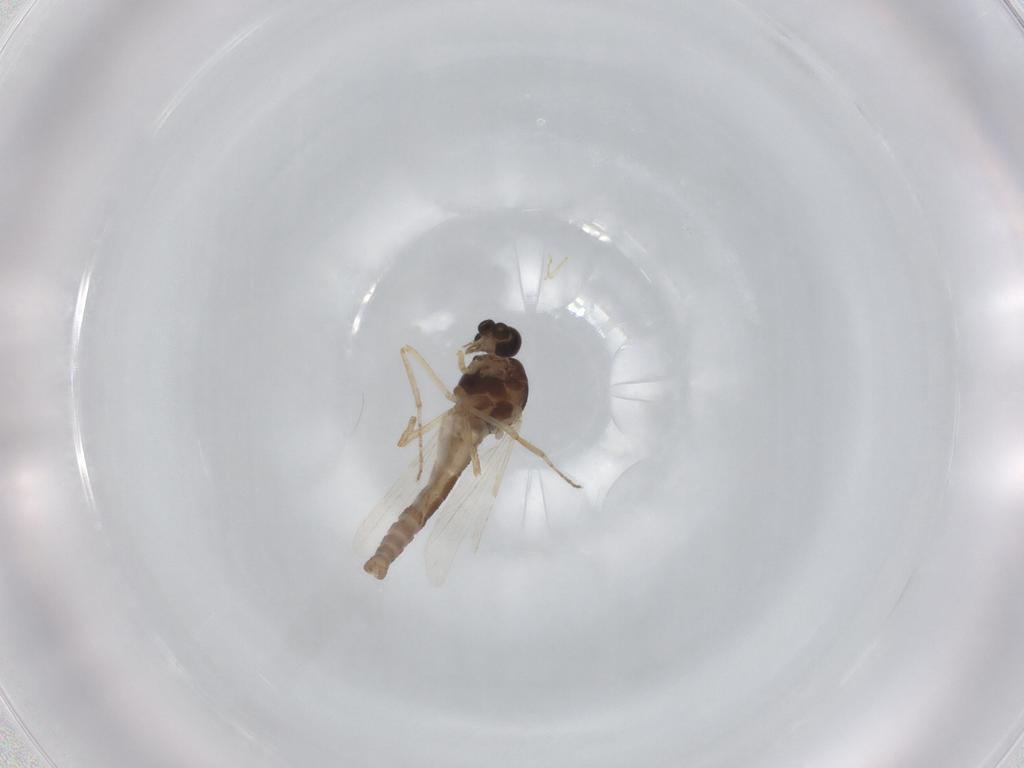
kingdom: Animalia
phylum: Arthropoda
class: Insecta
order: Diptera
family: Ceratopogonidae
